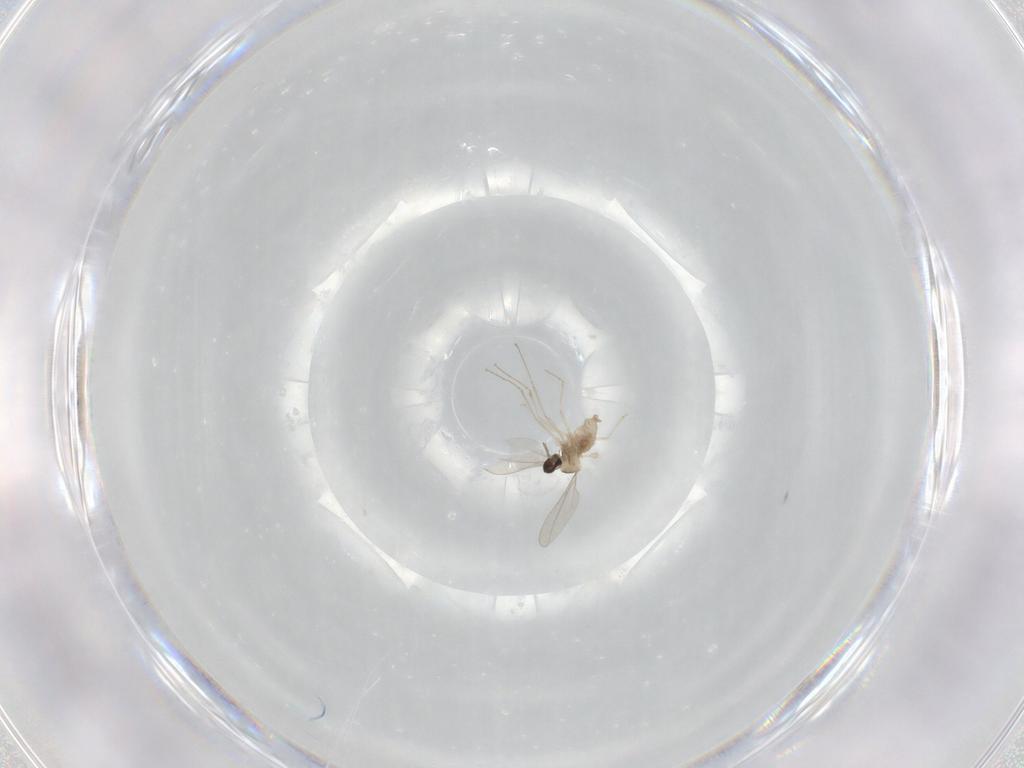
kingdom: Animalia
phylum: Arthropoda
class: Insecta
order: Diptera
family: Cecidomyiidae
